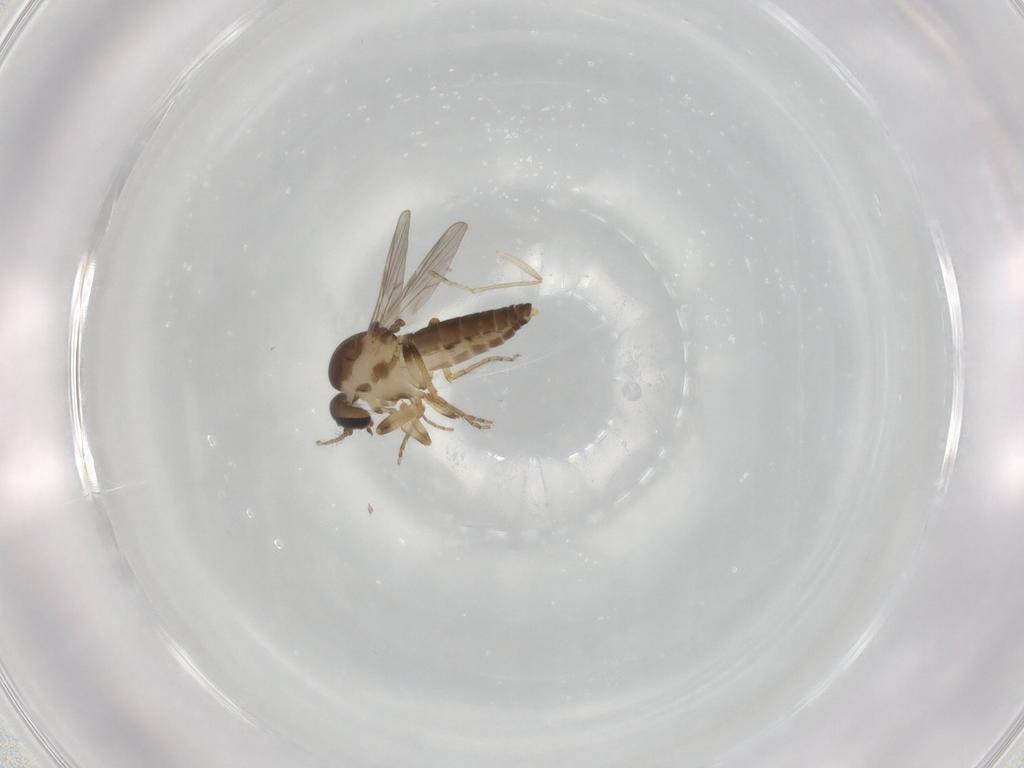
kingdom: Animalia
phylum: Arthropoda
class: Insecta
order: Diptera
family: Ceratopogonidae
